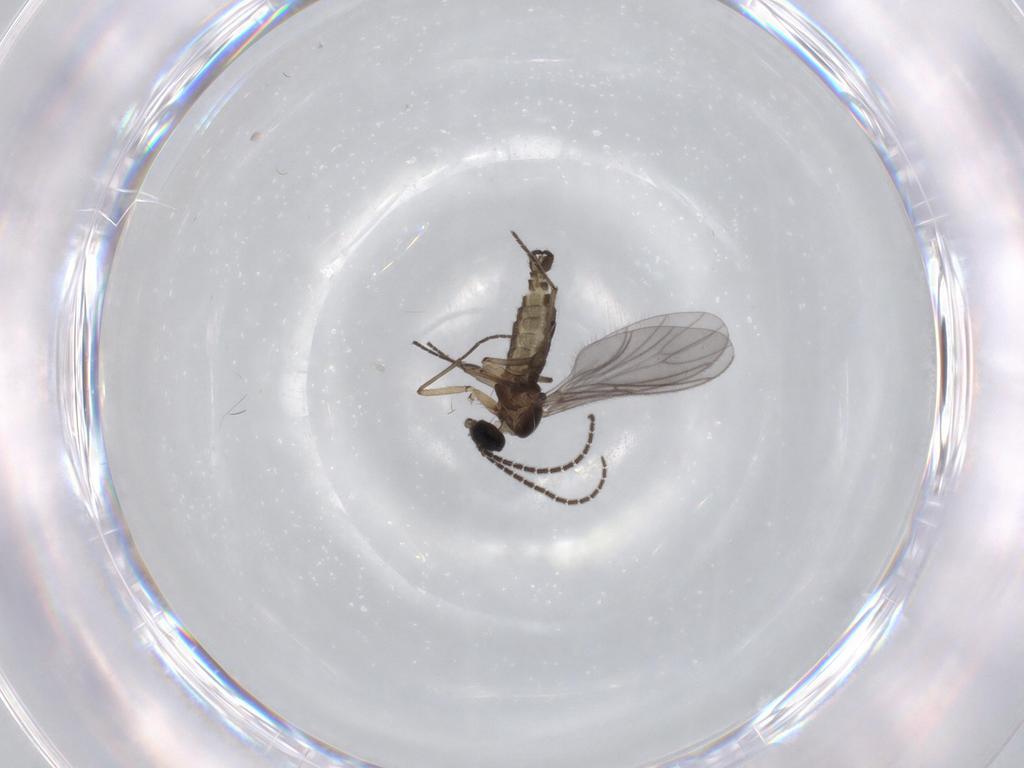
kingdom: Animalia
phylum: Arthropoda
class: Insecta
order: Diptera
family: Sciaridae
